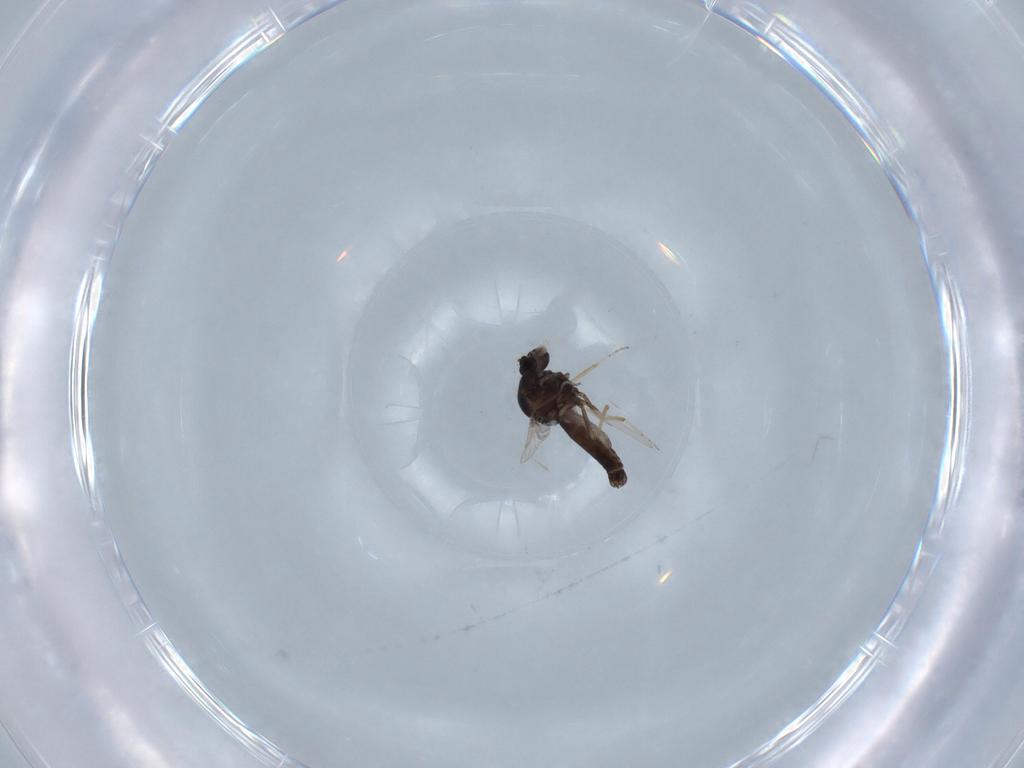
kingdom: Animalia
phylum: Arthropoda
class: Insecta
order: Diptera
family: Ceratopogonidae
